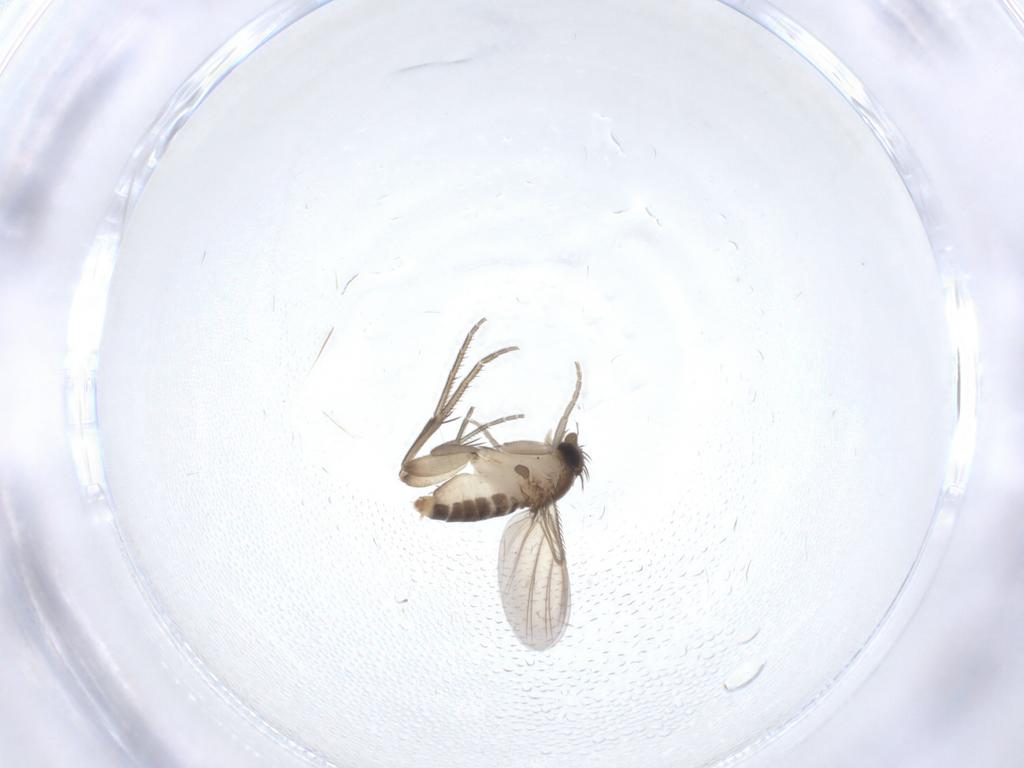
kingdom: Animalia
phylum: Arthropoda
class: Insecta
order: Diptera
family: Phoridae
